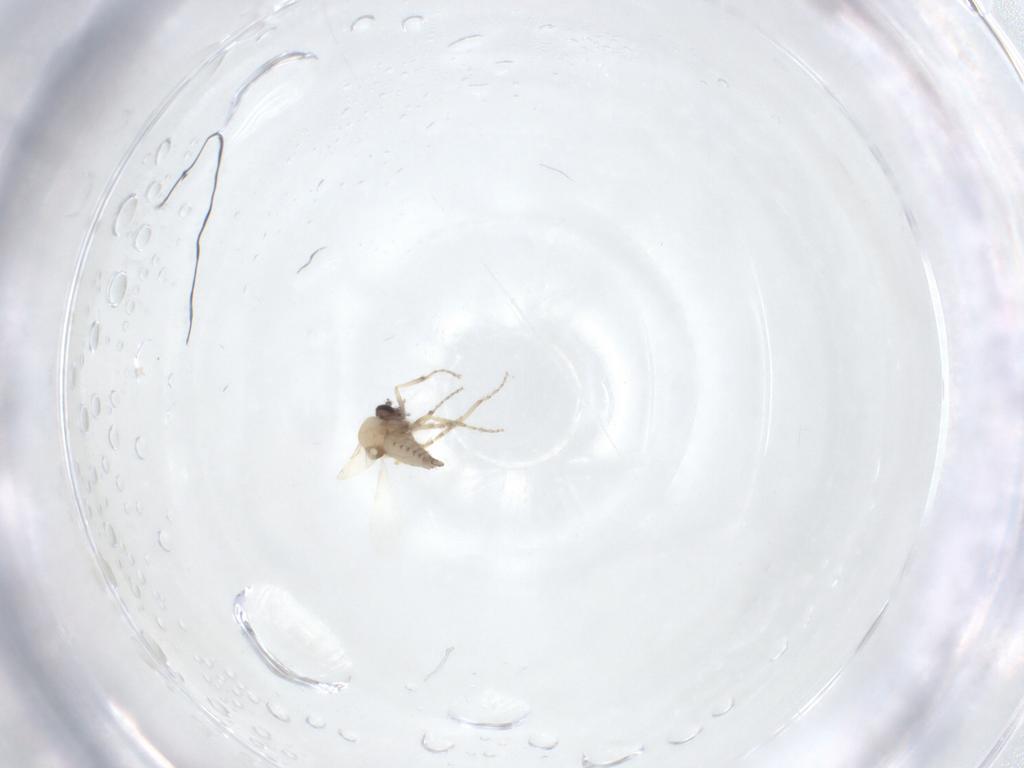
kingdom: Animalia
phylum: Arthropoda
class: Insecta
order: Diptera
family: Ceratopogonidae
